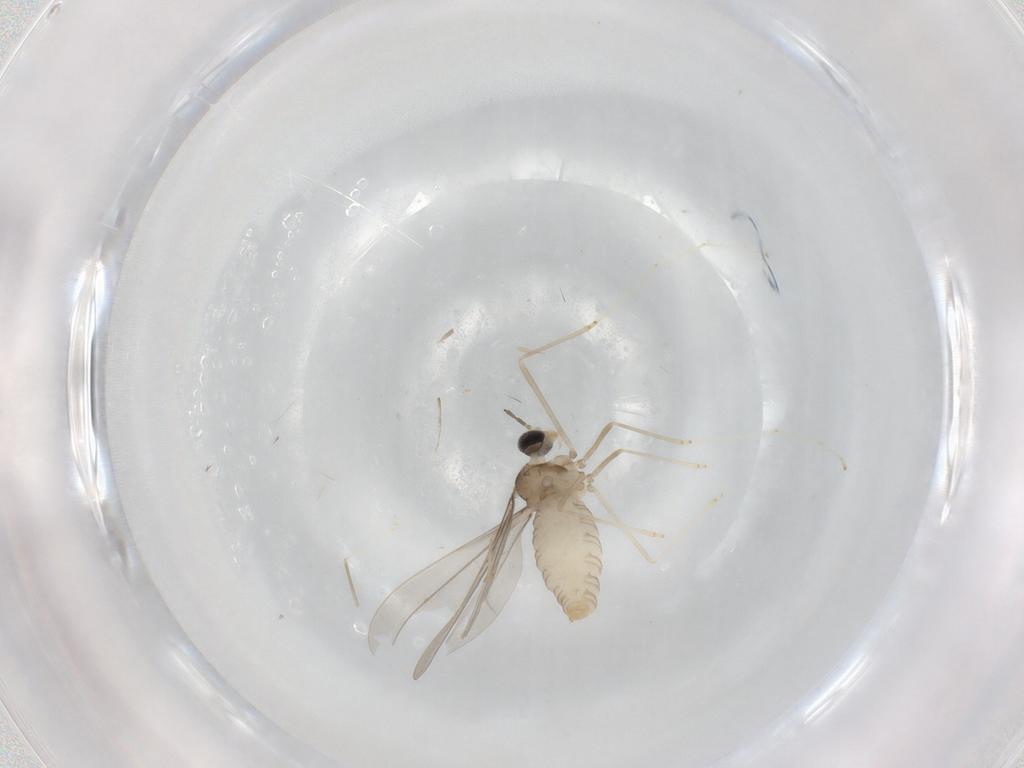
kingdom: Animalia
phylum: Arthropoda
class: Insecta
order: Diptera
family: Cecidomyiidae
